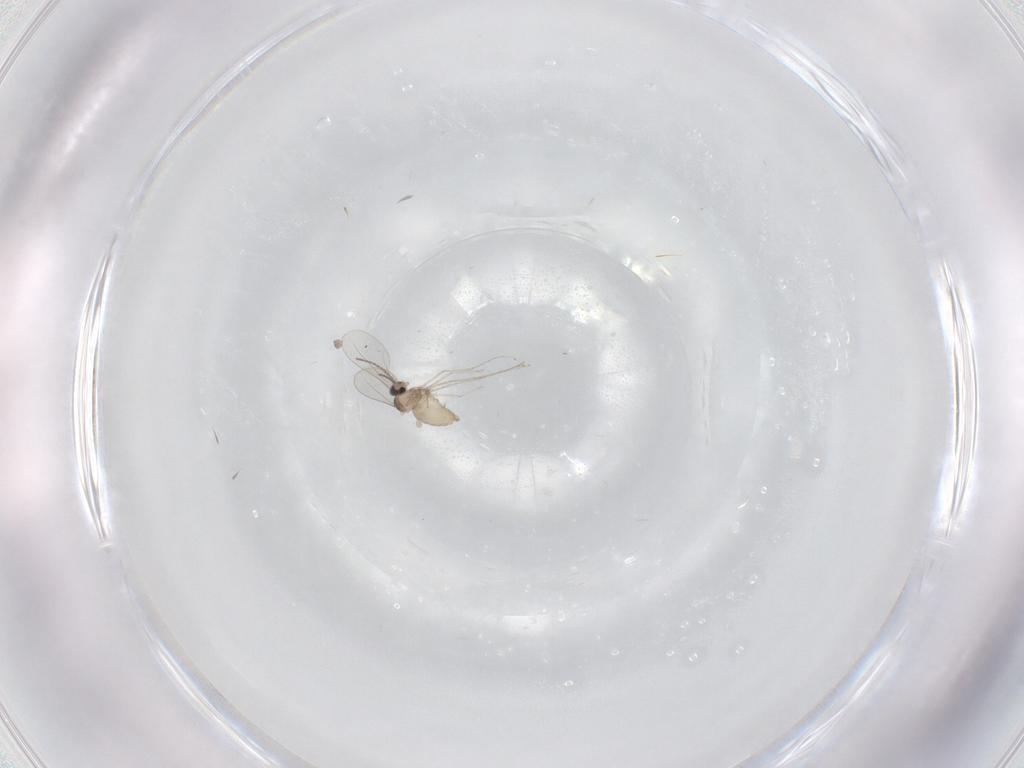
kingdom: Animalia
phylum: Arthropoda
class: Insecta
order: Diptera
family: Cecidomyiidae
